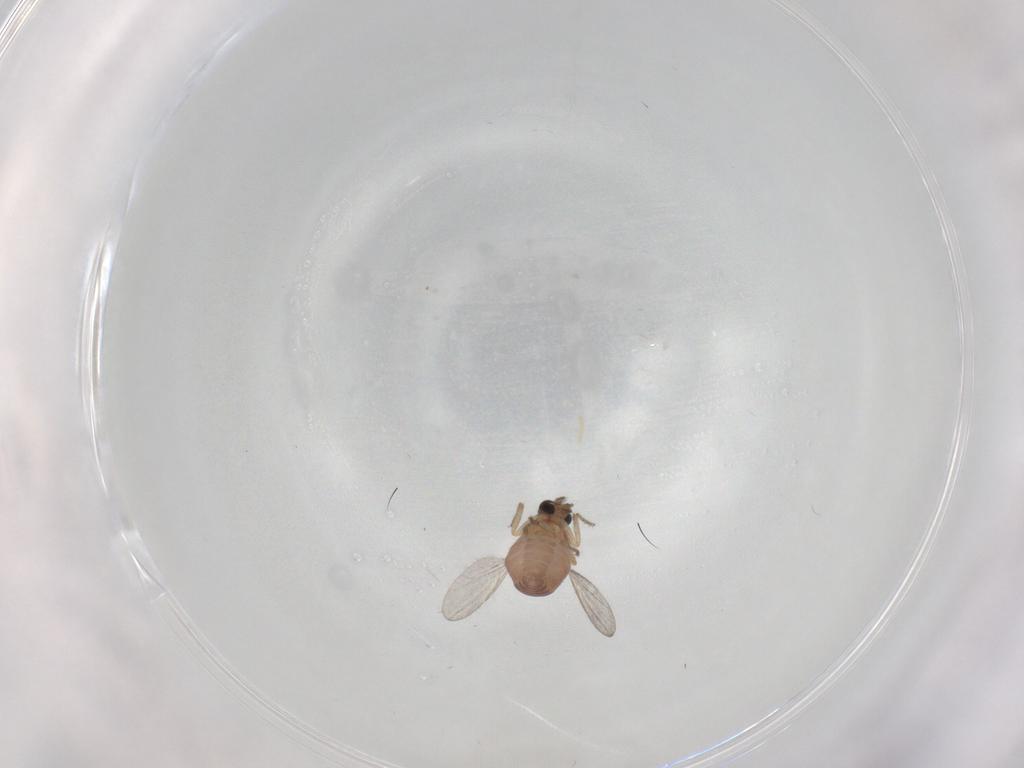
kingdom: Animalia
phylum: Arthropoda
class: Insecta
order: Diptera
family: Ceratopogonidae
